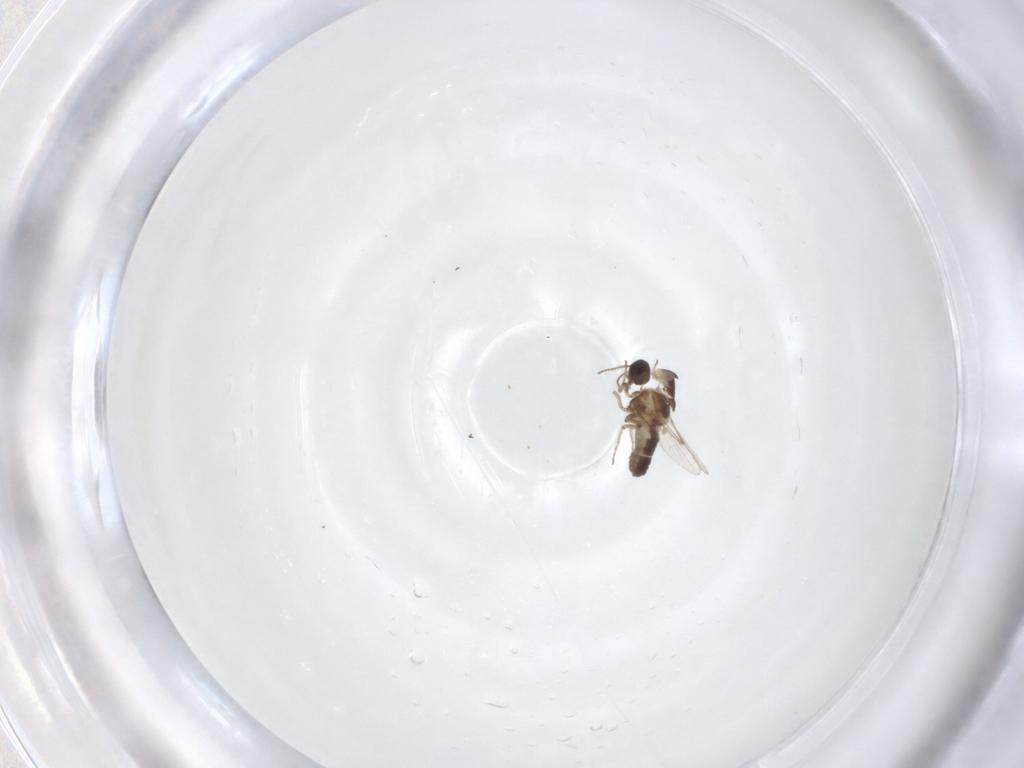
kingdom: Animalia
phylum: Arthropoda
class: Insecta
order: Diptera
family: Ceratopogonidae
